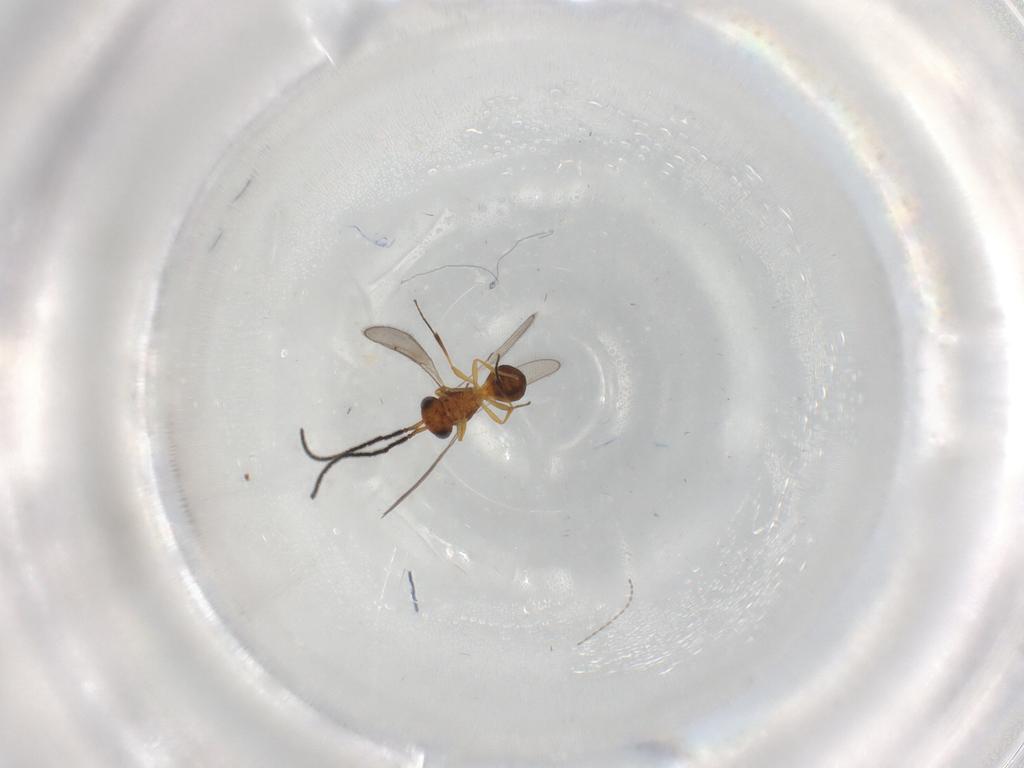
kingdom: Animalia
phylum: Arthropoda
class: Insecta
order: Hymenoptera
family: Scelionidae
